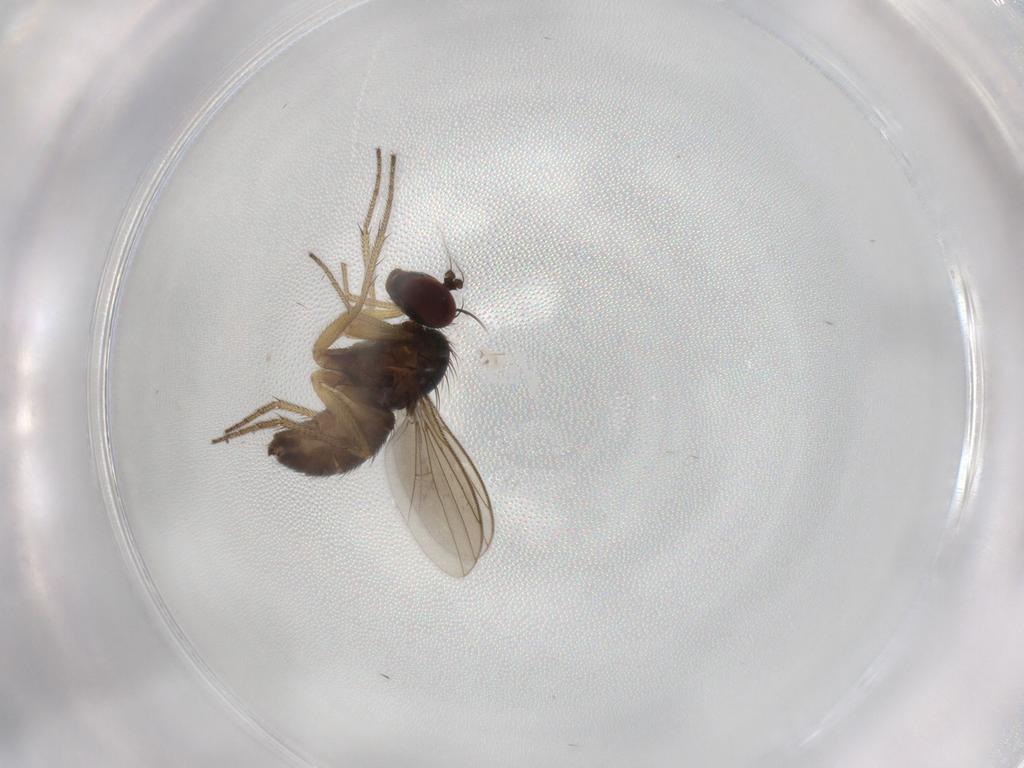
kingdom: Animalia
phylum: Arthropoda
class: Insecta
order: Diptera
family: Dolichopodidae
